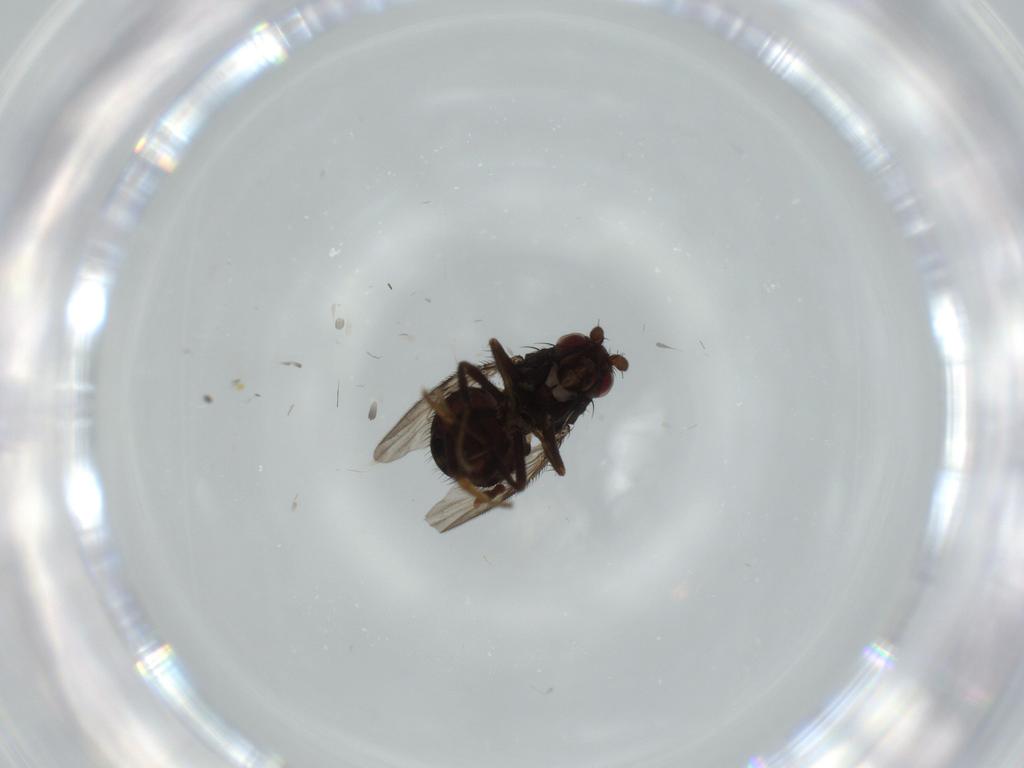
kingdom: Animalia
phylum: Arthropoda
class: Insecta
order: Diptera
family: Sphaeroceridae
